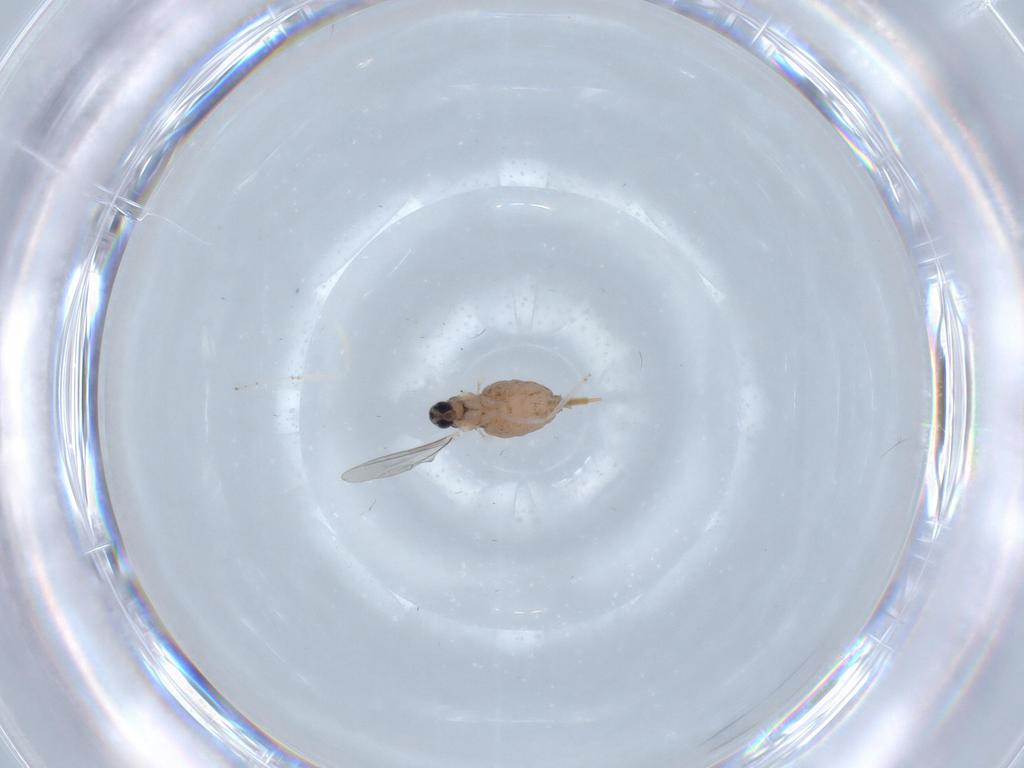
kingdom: Animalia
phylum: Arthropoda
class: Insecta
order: Diptera
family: Cecidomyiidae
